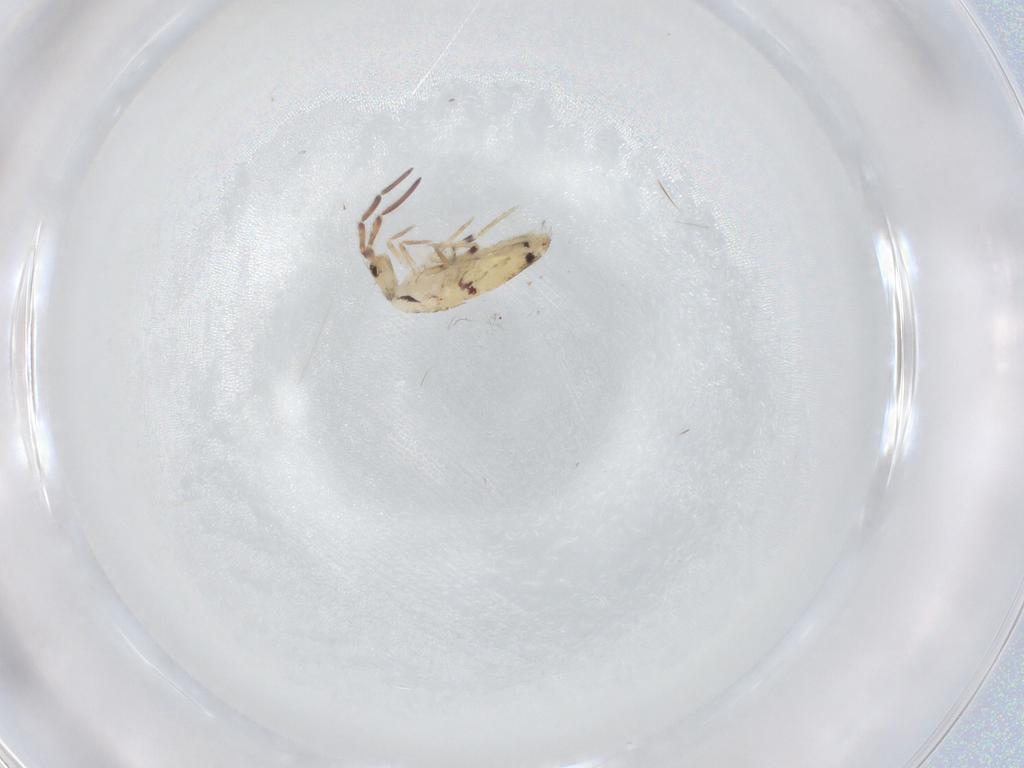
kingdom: Animalia
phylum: Arthropoda
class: Collembola
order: Entomobryomorpha
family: Entomobryidae
